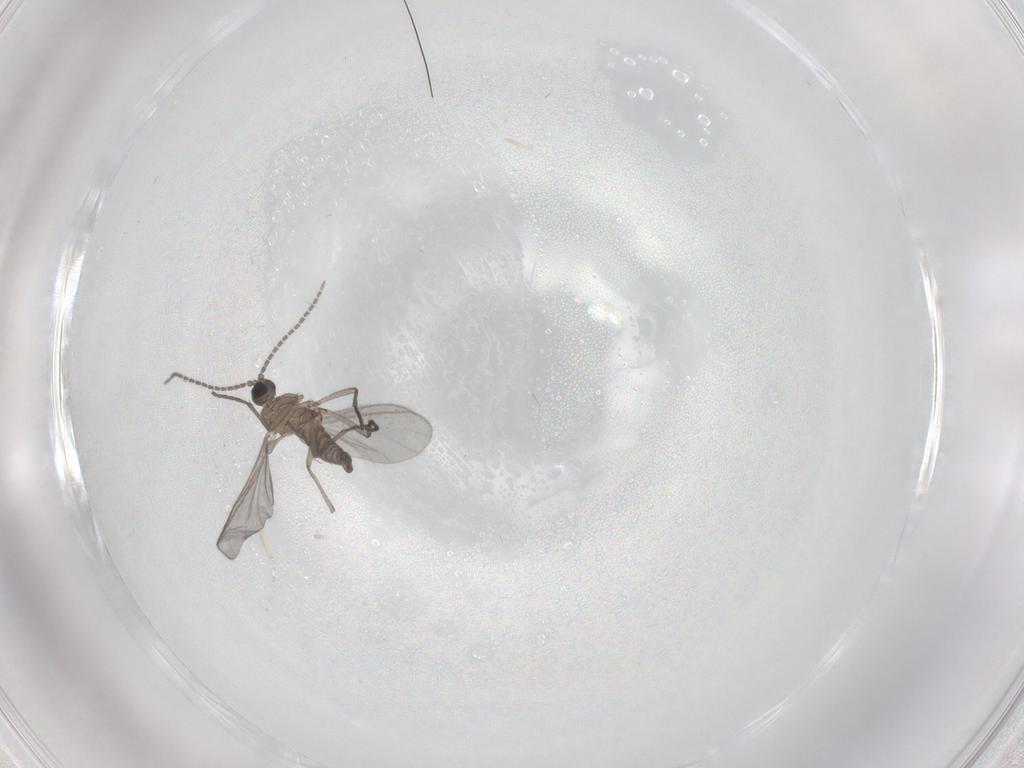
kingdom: Animalia
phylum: Arthropoda
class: Insecta
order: Diptera
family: Sciaridae
